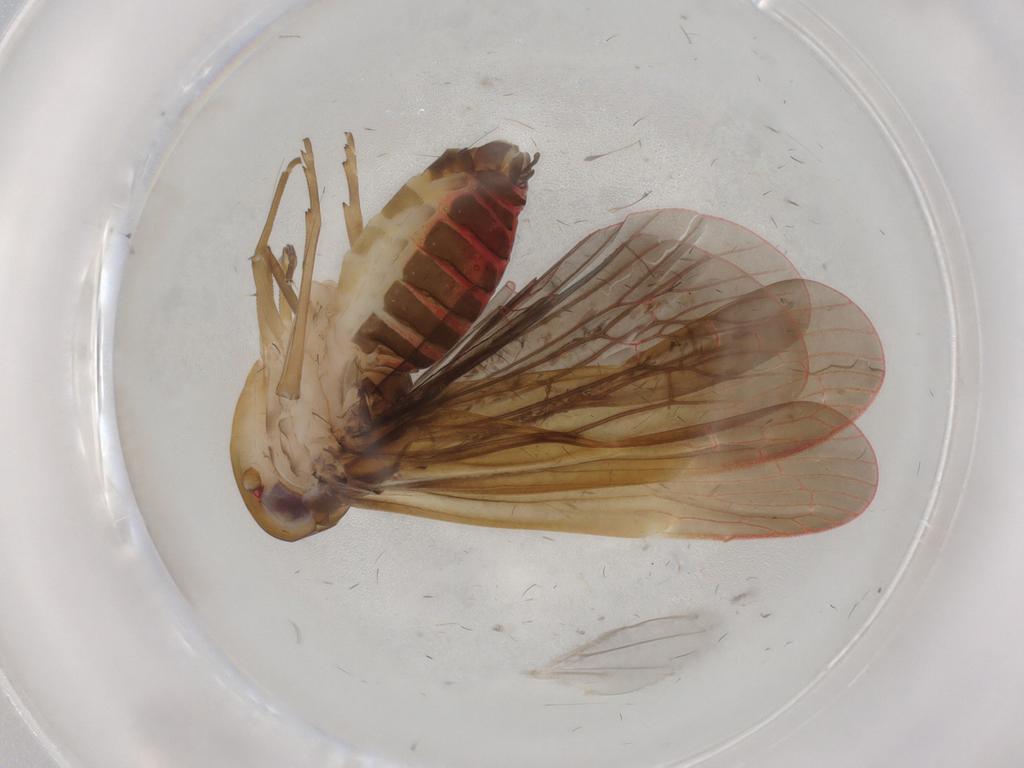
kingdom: Animalia
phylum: Arthropoda
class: Insecta
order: Hemiptera
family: Achilidae
